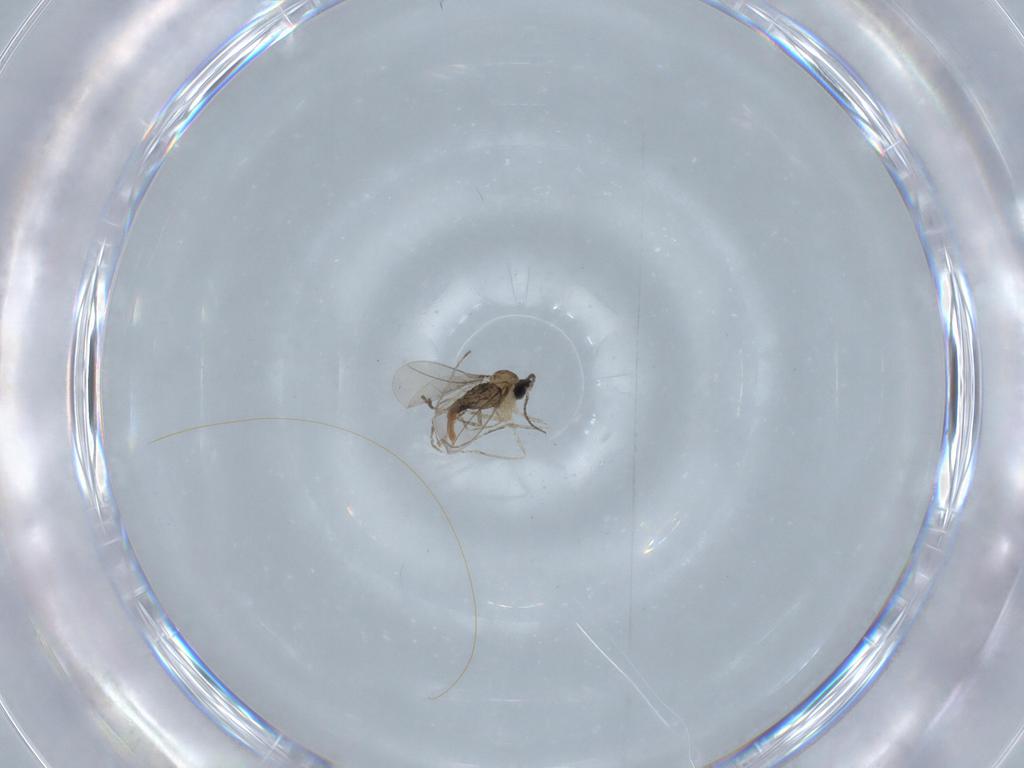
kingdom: Animalia
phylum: Arthropoda
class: Insecta
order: Diptera
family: Cecidomyiidae
